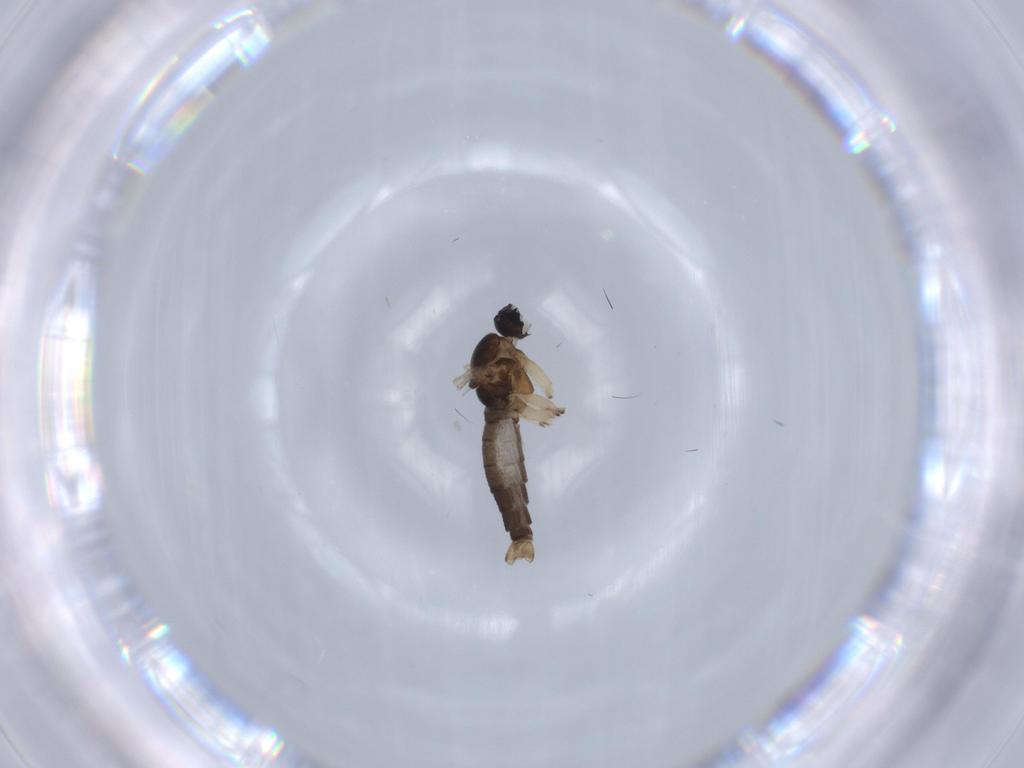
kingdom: Animalia
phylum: Arthropoda
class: Insecta
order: Diptera
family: Sciaridae
